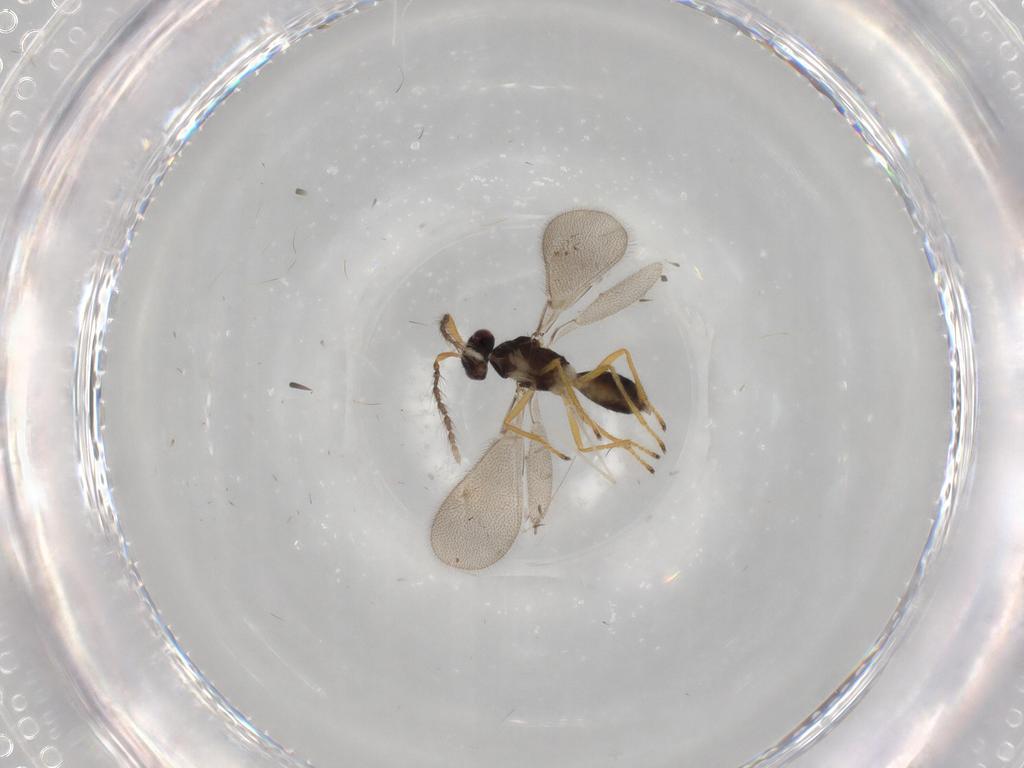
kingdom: Animalia
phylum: Arthropoda
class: Insecta
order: Hymenoptera
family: Eulophidae
